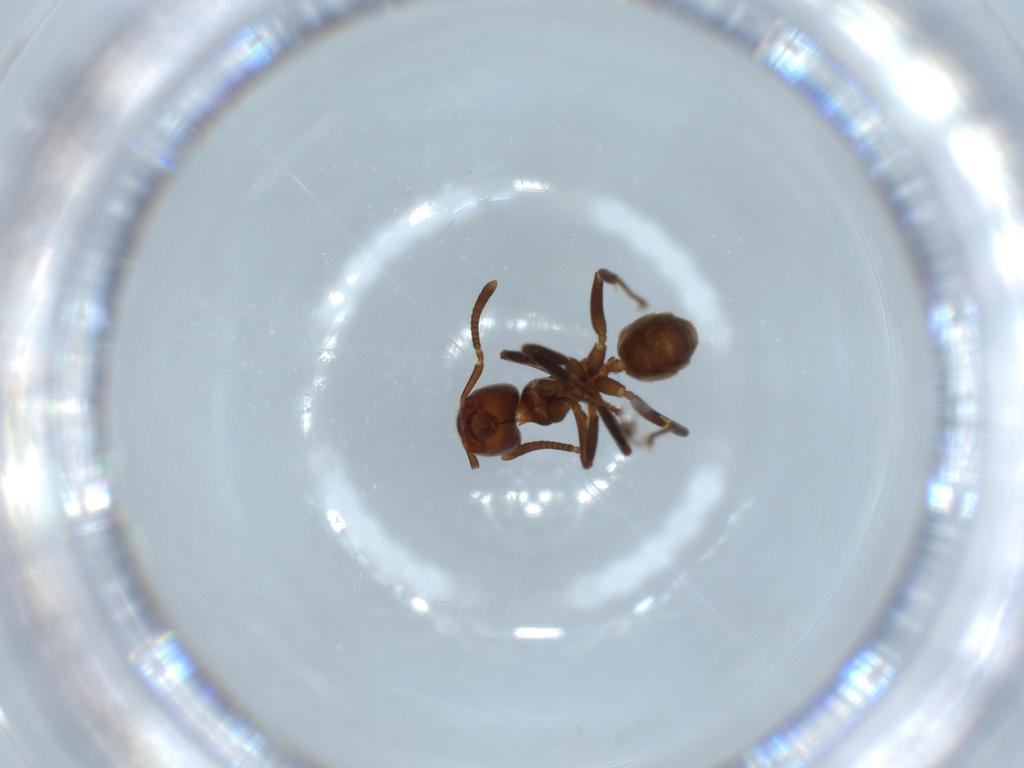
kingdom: Animalia
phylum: Arthropoda
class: Insecta
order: Hymenoptera
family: Formicidae
